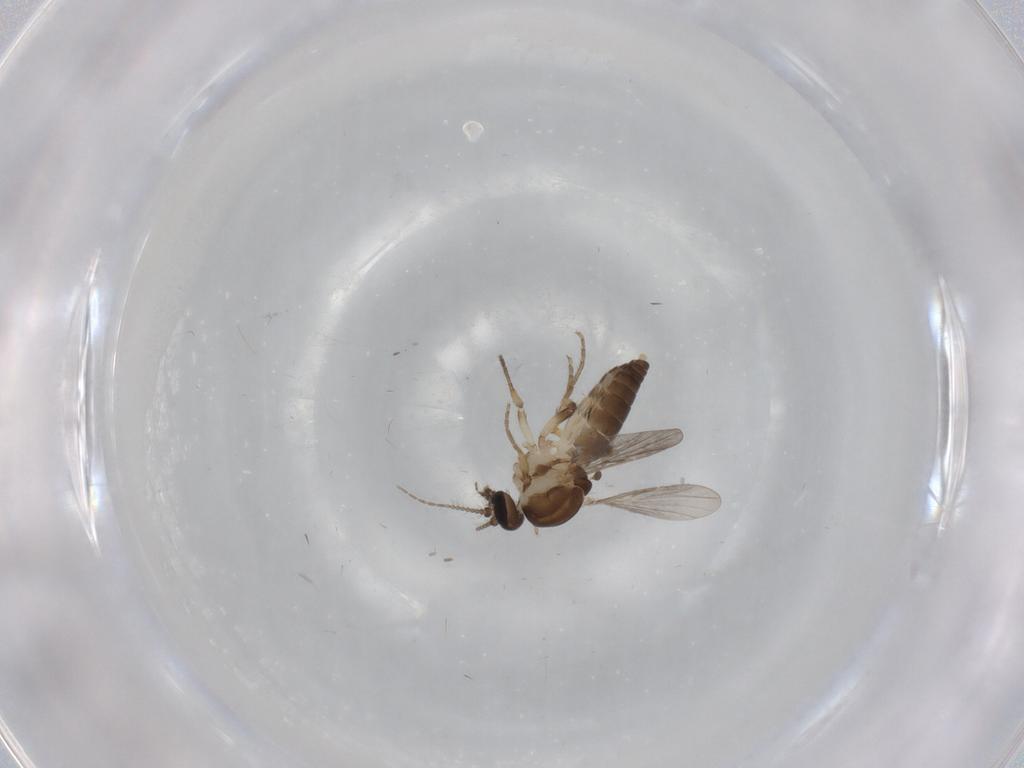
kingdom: Animalia
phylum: Arthropoda
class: Insecta
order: Diptera
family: Ceratopogonidae
